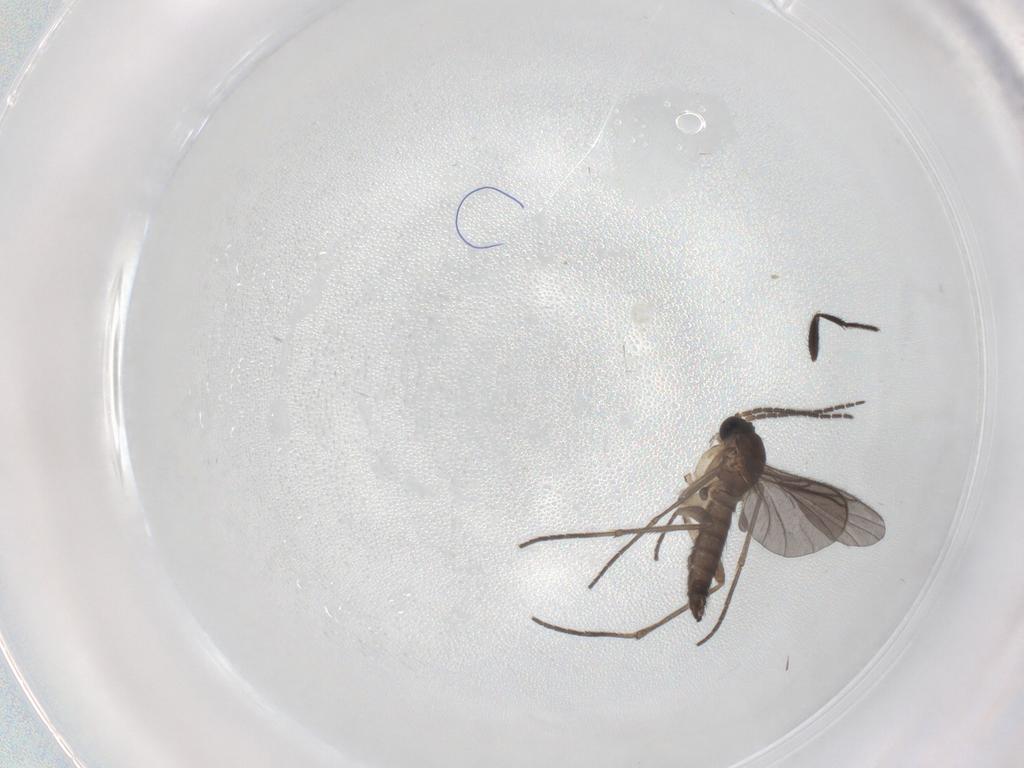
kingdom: Animalia
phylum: Arthropoda
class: Insecta
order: Diptera
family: Sciaridae
